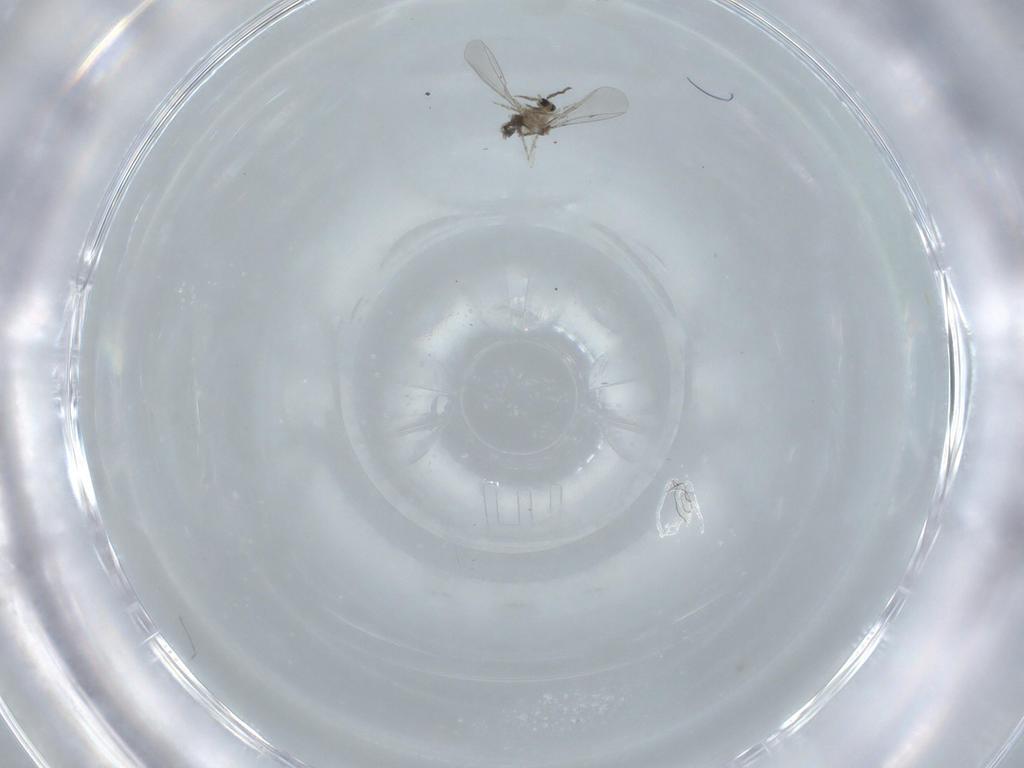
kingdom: Animalia
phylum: Arthropoda
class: Insecta
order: Diptera
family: Cecidomyiidae
